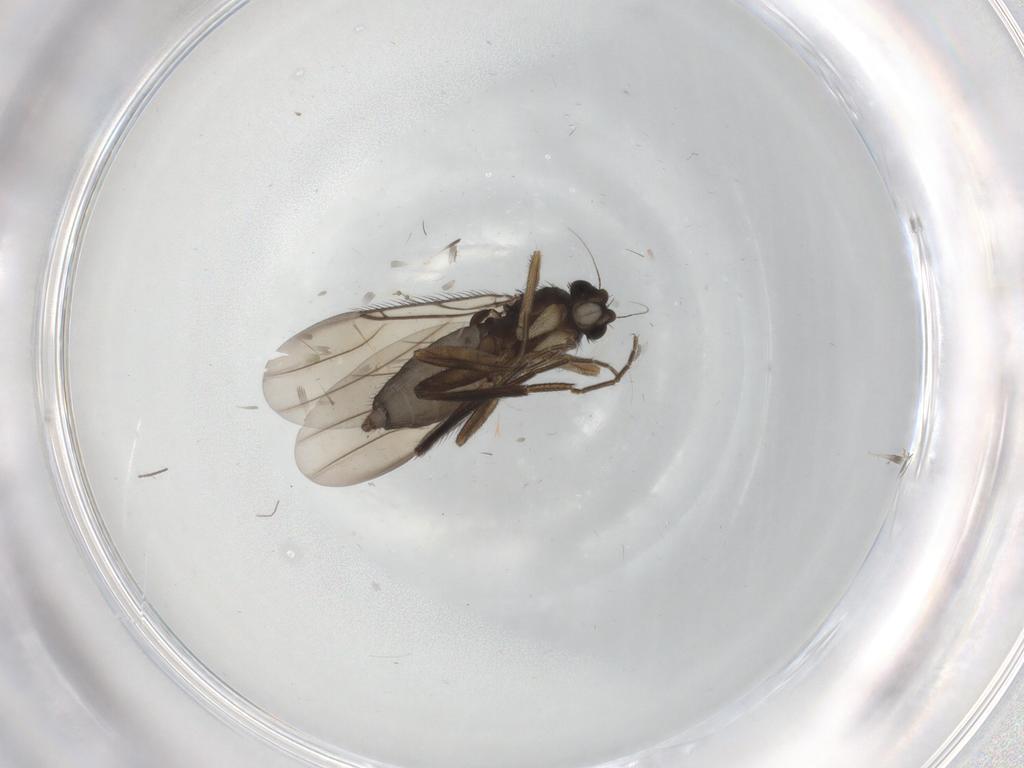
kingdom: Animalia
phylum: Arthropoda
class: Insecta
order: Diptera
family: Phoridae
